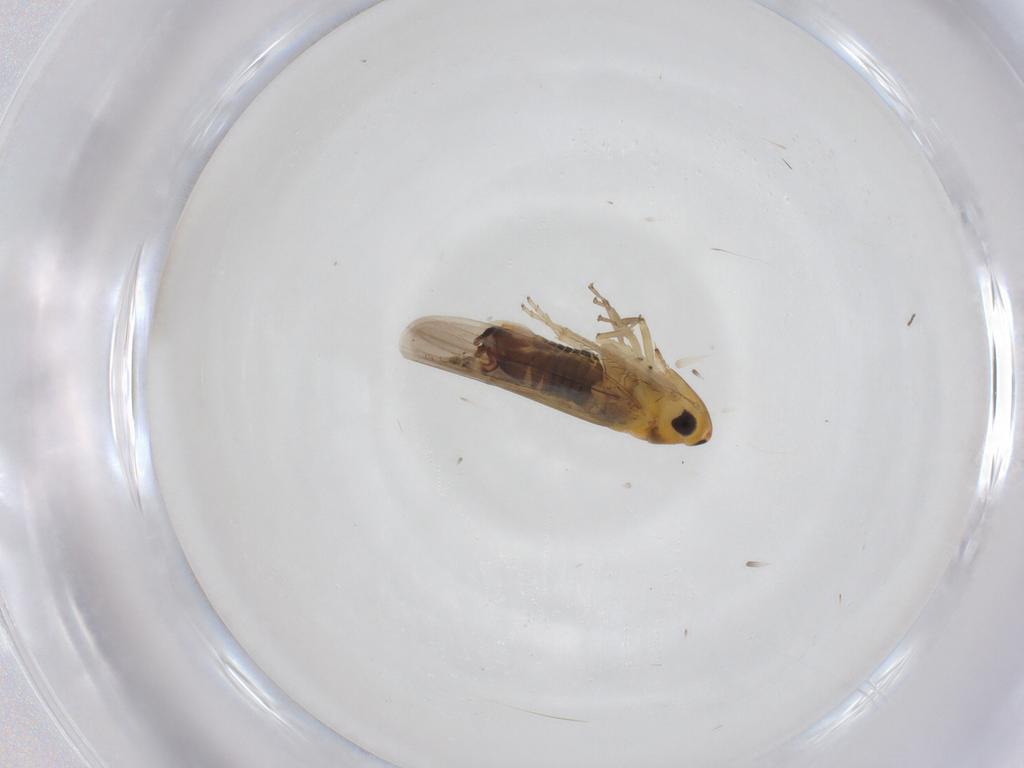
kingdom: Animalia
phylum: Arthropoda
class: Insecta
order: Hemiptera
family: Cicadellidae
